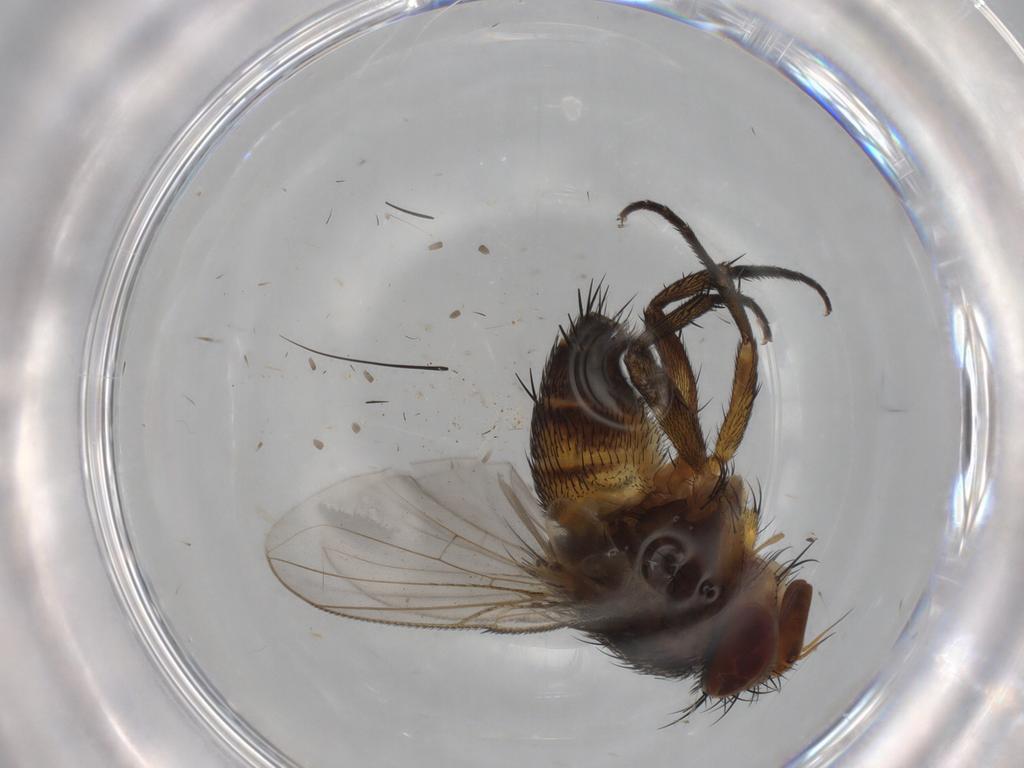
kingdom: Animalia
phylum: Arthropoda
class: Insecta
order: Diptera
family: Tachinidae
